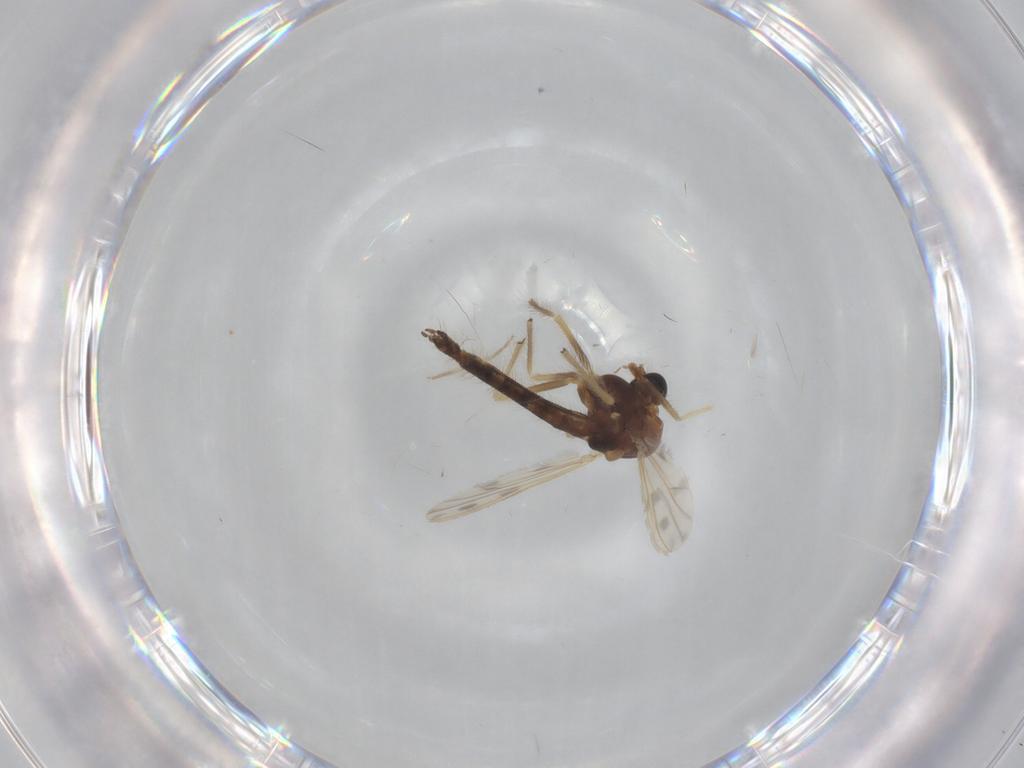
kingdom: Animalia
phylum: Arthropoda
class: Insecta
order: Diptera
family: Chironomidae
